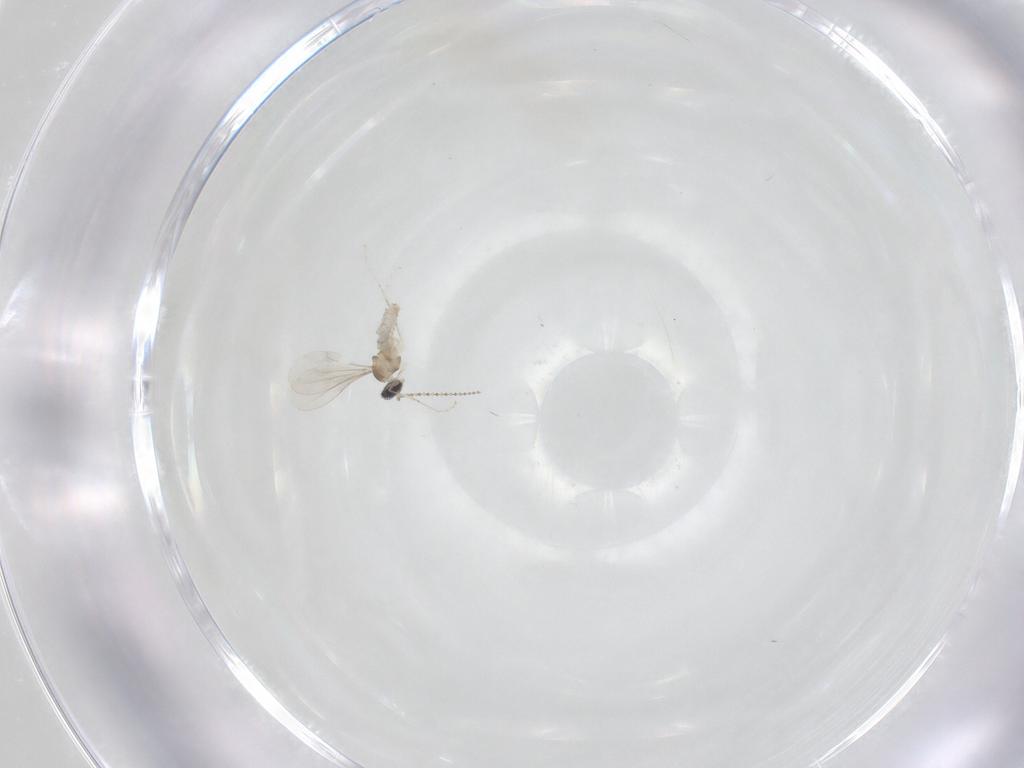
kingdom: Animalia
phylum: Arthropoda
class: Insecta
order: Diptera
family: Cecidomyiidae
